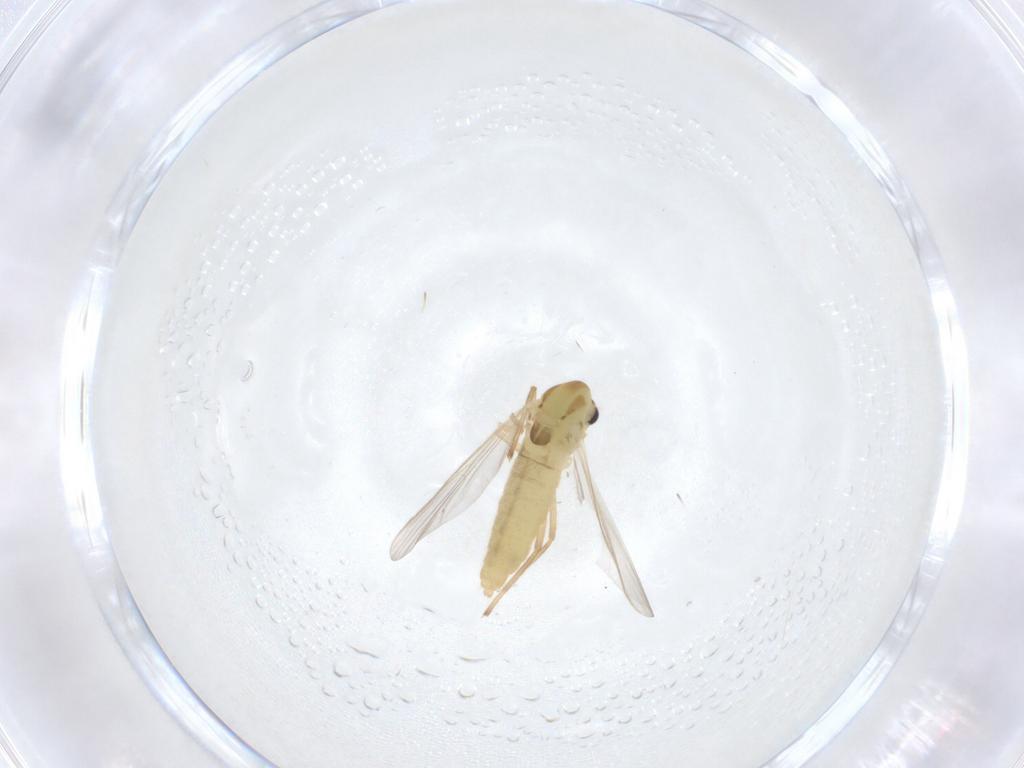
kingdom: Animalia
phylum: Arthropoda
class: Insecta
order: Diptera
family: Chironomidae
